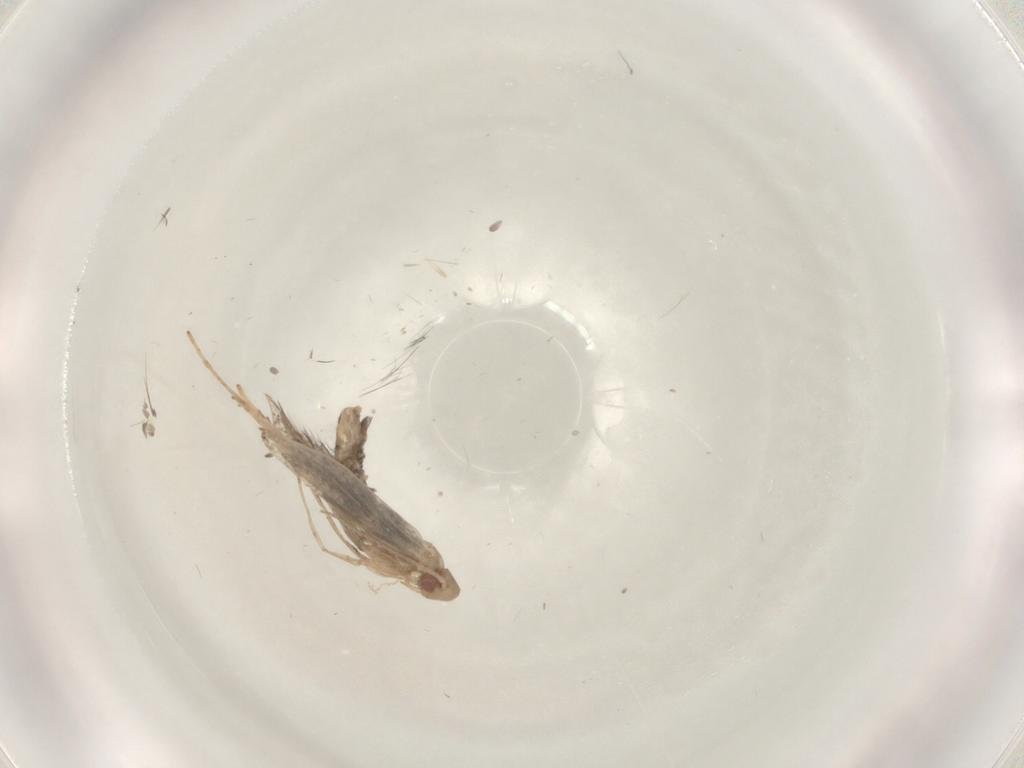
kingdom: Animalia
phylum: Arthropoda
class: Insecta
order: Lepidoptera
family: Gracillariidae
